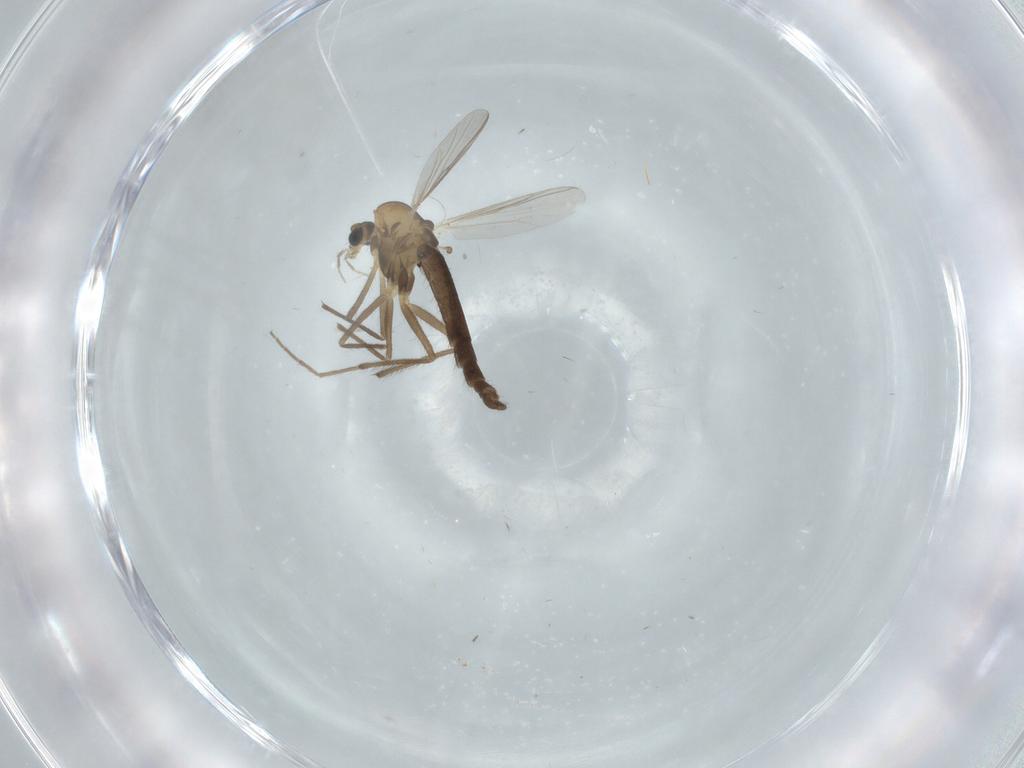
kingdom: Animalia
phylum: Arthropoda
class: Insecta
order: Diptera
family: Chironomidae
